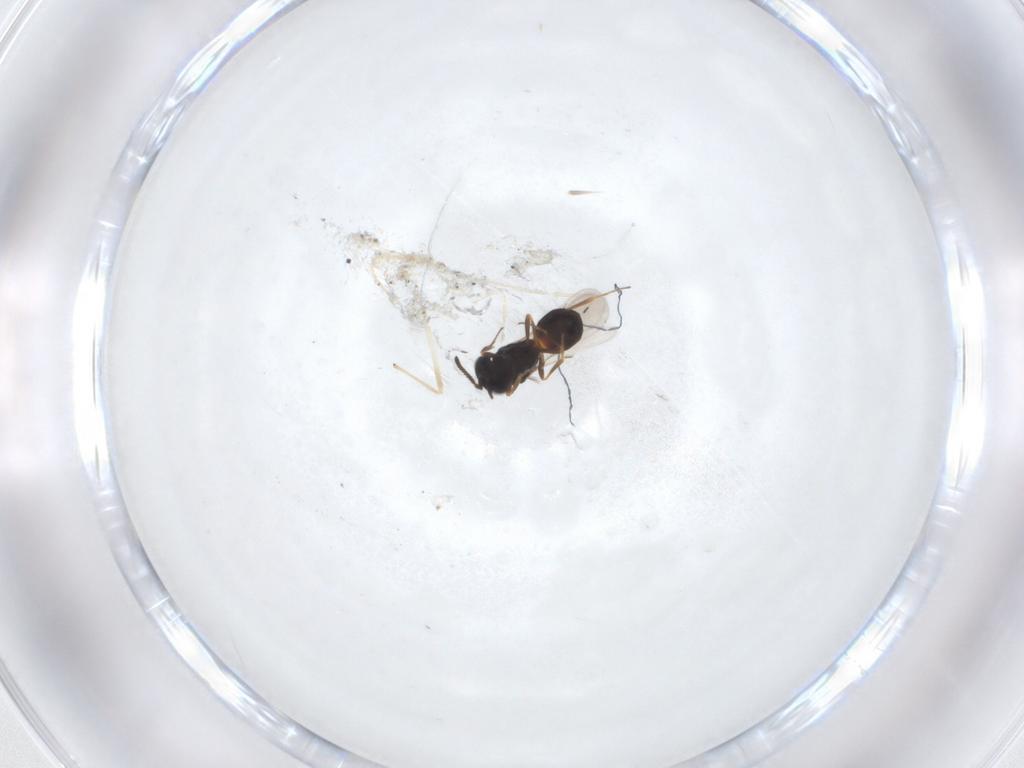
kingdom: Animalia
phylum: Arthropoda
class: Arachnida
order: Araneae
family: Pholcidae
